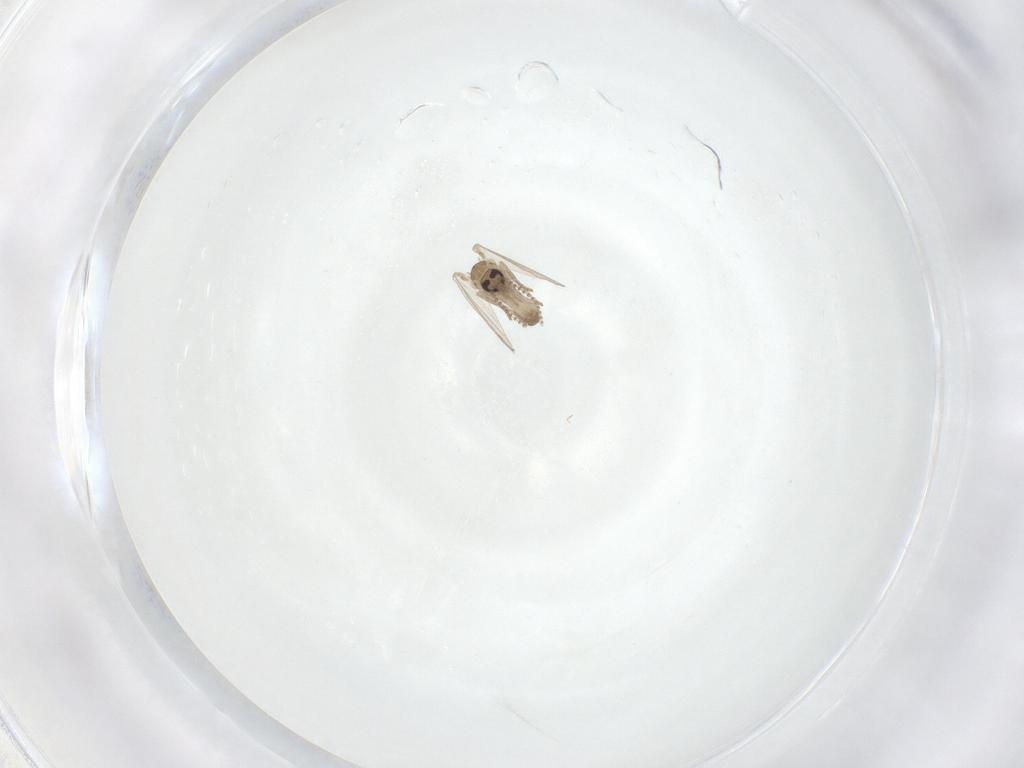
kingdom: Animalia
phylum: Arthropoda
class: Insecta
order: Diptera
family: Psychodidae
